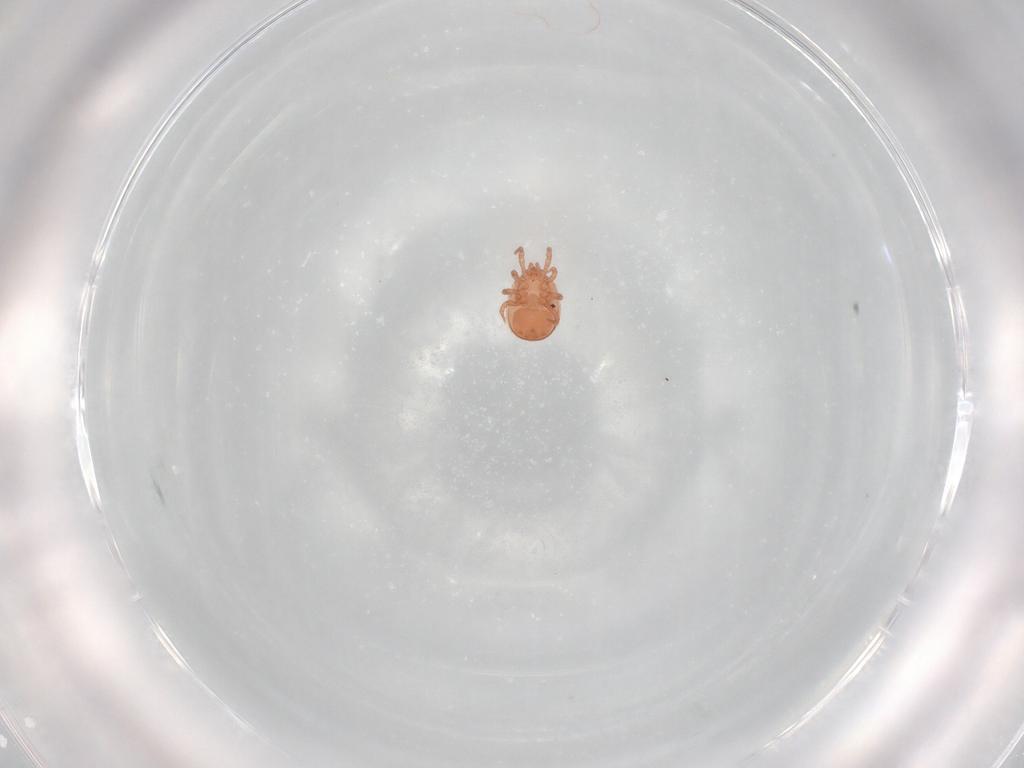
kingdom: Animalia
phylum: Arthropoda
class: Arachnida
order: Mesostigmata
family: Zerconidae
